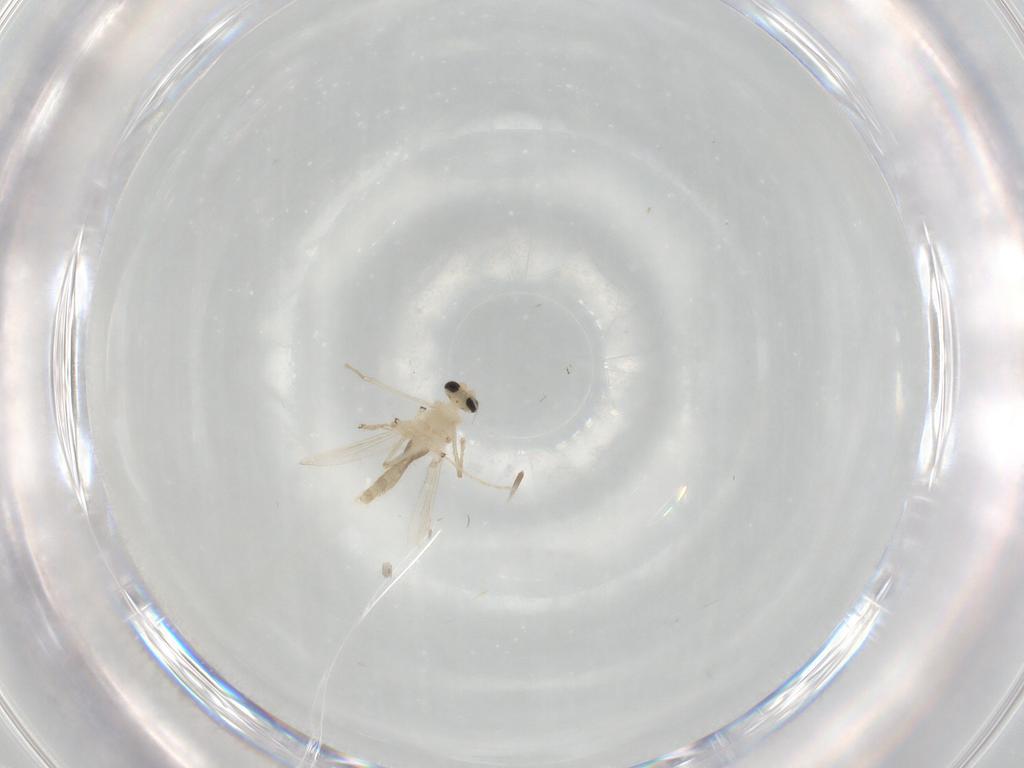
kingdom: Animalia
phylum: Arthropoda
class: Insecta
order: Diptera
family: Chironomidae
